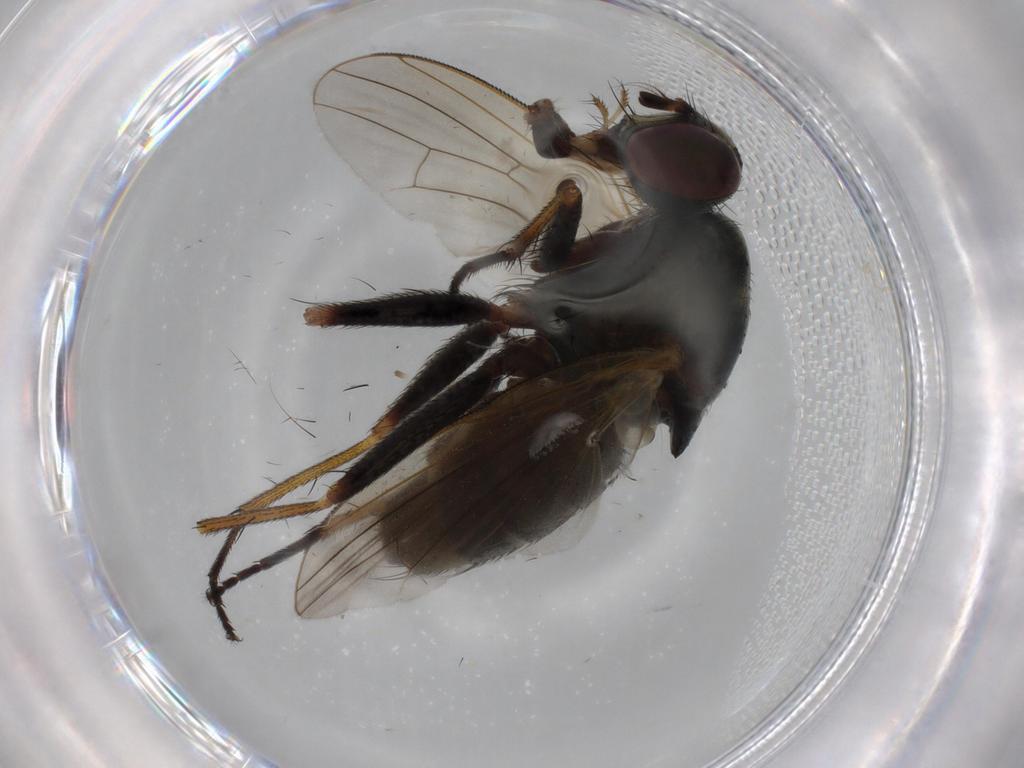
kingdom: Animalia
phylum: Arthropoda
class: Insecta
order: Diptera
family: Muscidae
